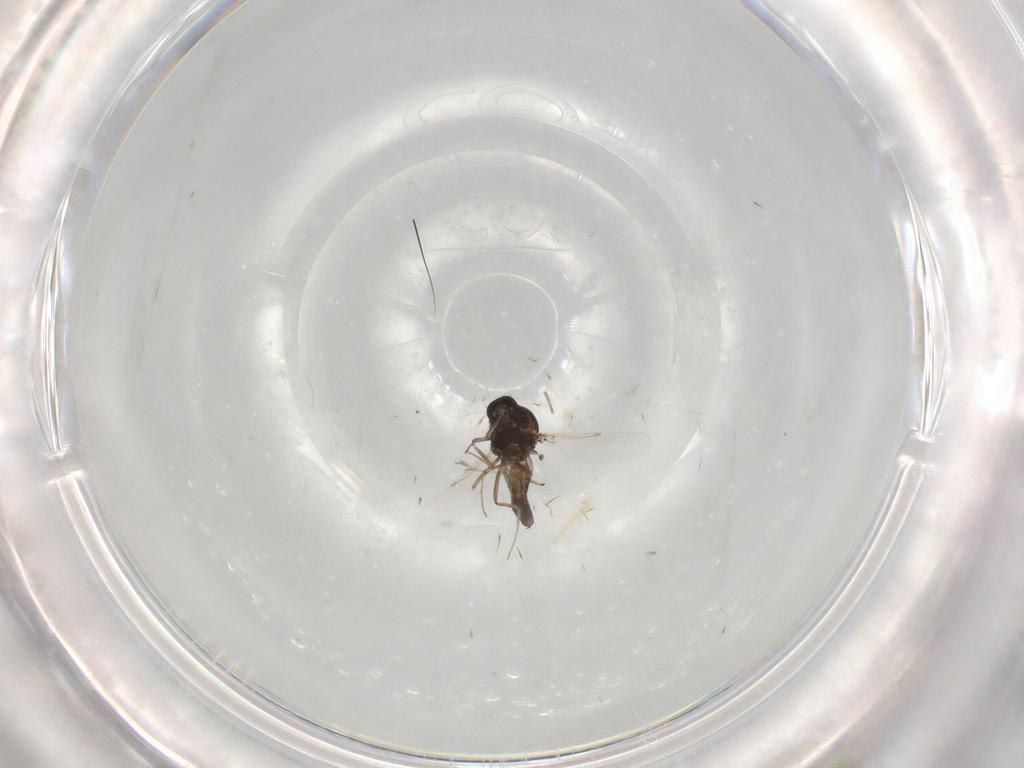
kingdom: Animalia
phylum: Arthropoda
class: Insecta
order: Diptera
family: Ceratopogonidae
